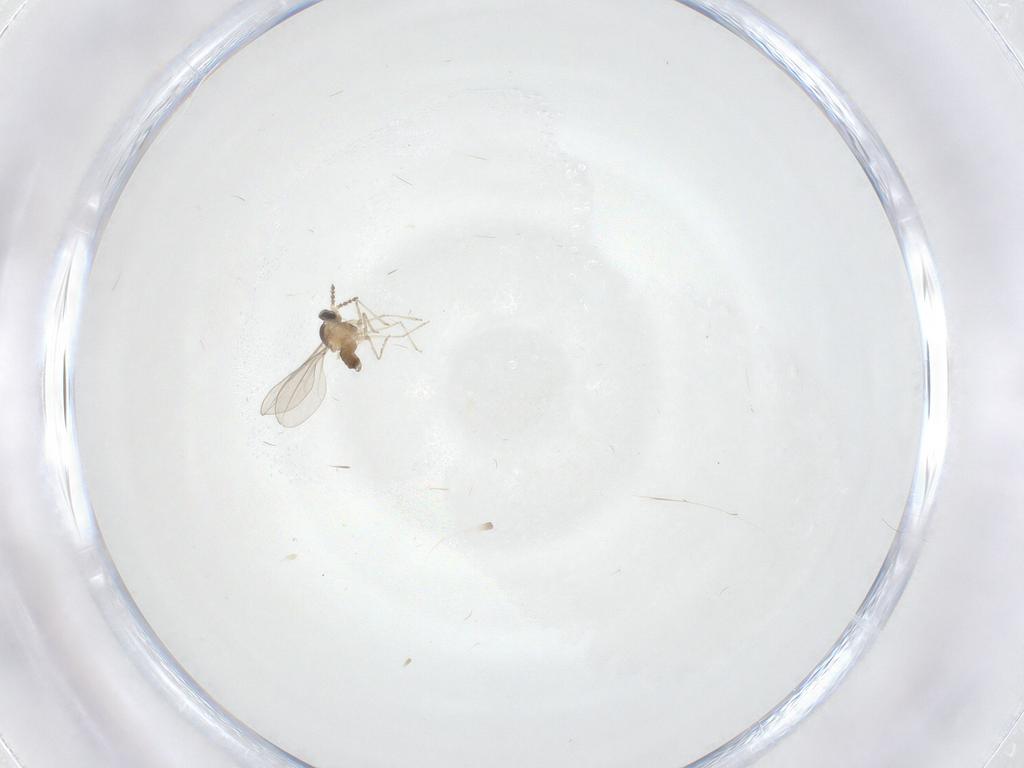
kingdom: Animalia
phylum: Arthropoda
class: Insecta
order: Diptera
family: Cecidomyiidae
